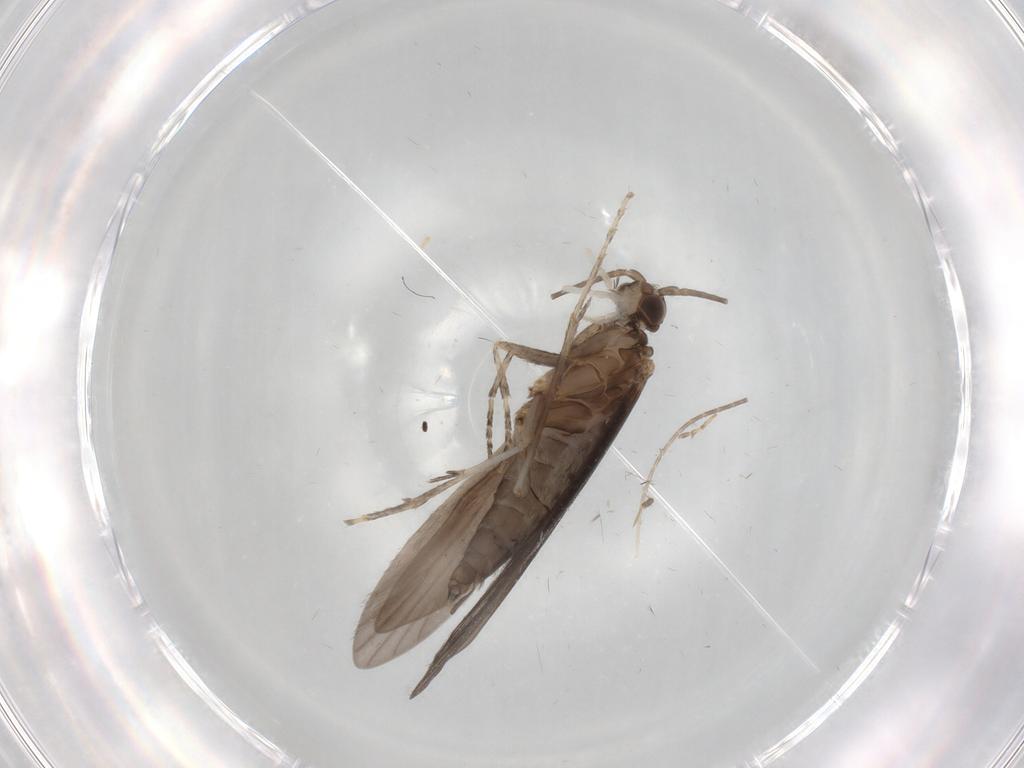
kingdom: Animalia
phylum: Arthropoda
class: Insecta
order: Trichoptera
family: Xiphocentronidae
